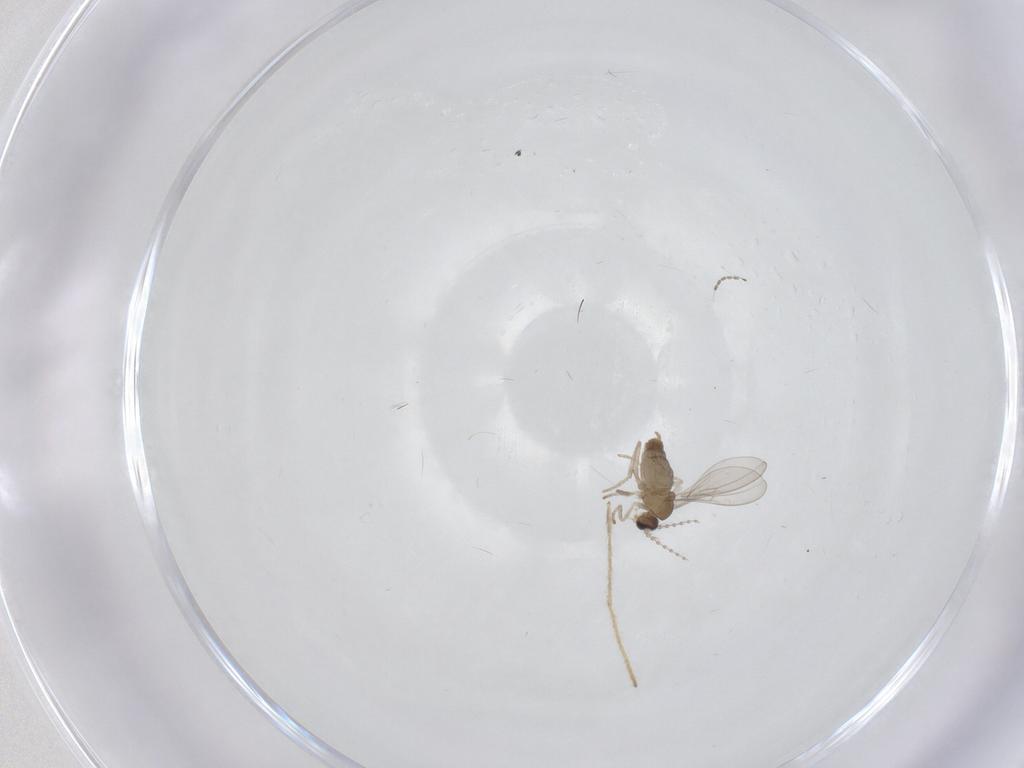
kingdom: Animalia
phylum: Arthropoda
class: Insecta
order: Diptera
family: Cecidomyiidae
